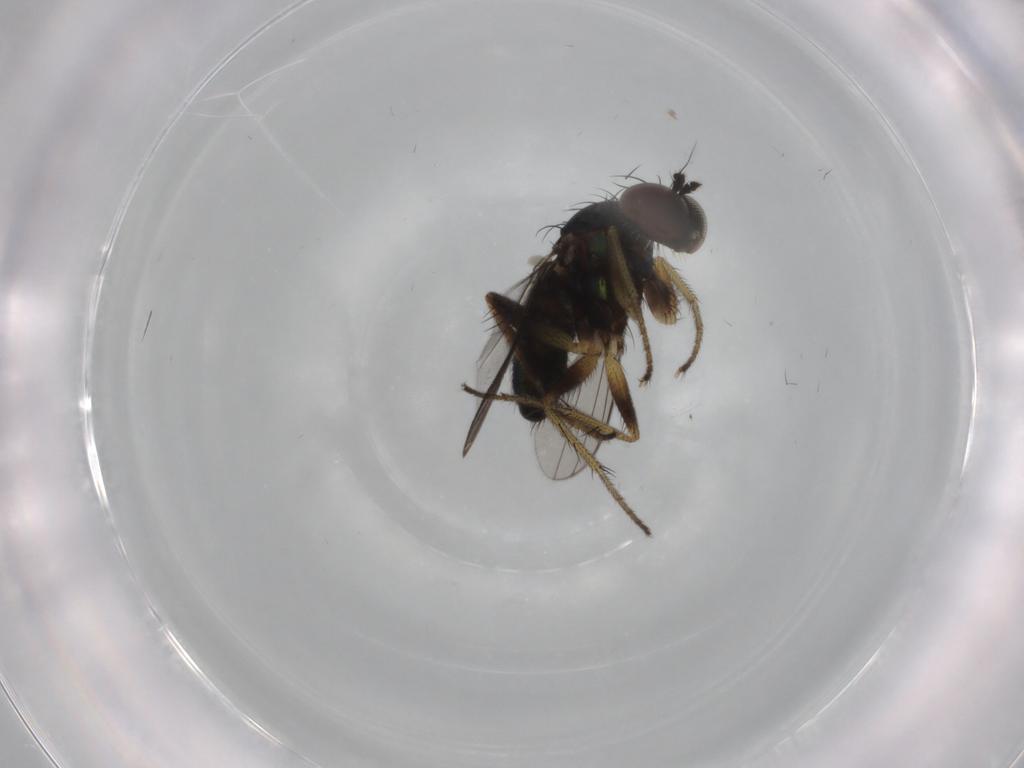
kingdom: Animalia
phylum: Arthropoda
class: Insecta
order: Diptera
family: Dolichopodidae
